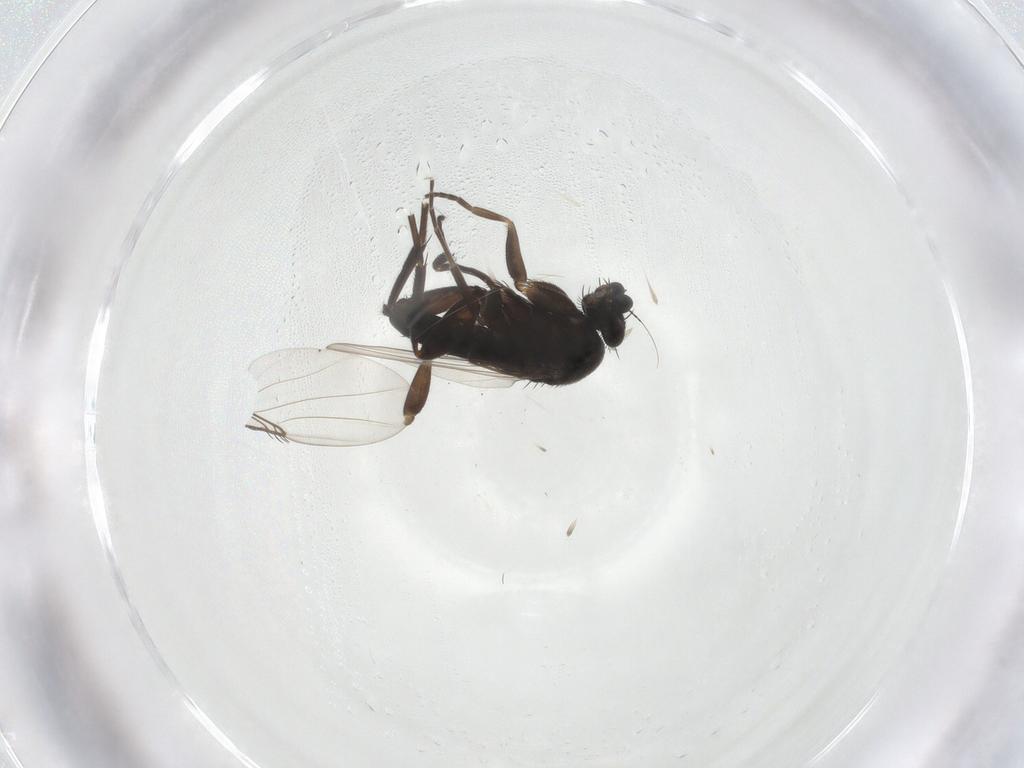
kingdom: Animalia
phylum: Arthropoda
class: Insecta
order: Diptera
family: Phoridae
